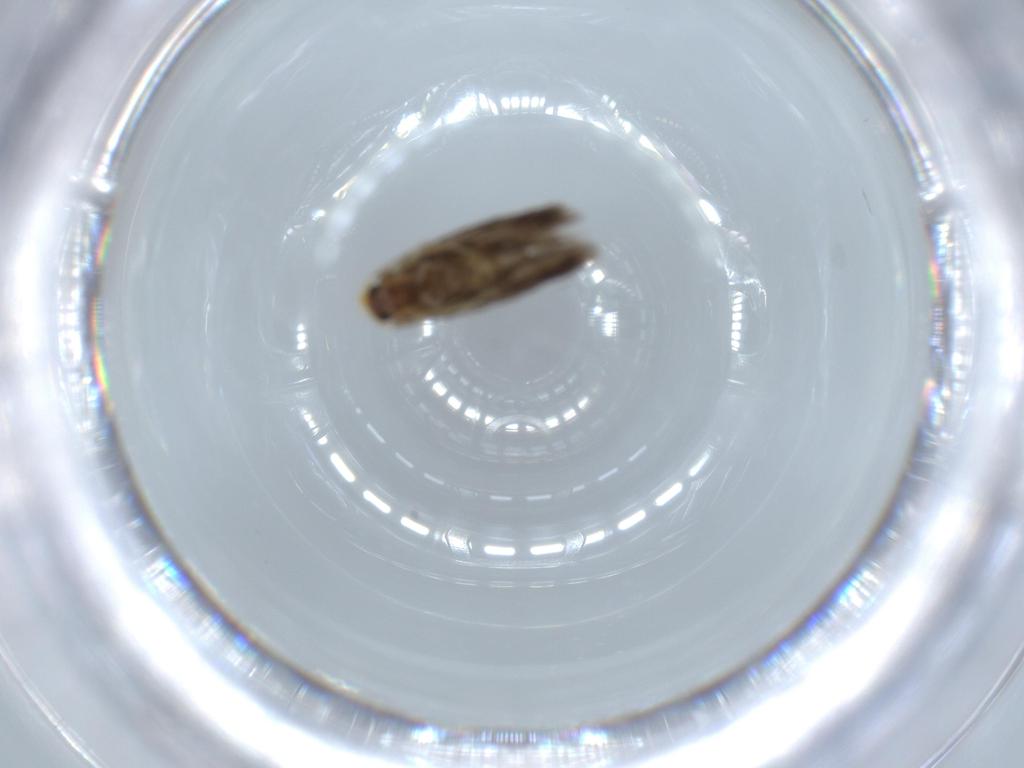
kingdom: Animalia
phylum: Arthropoda
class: Insecta
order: Lepidoptera
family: Nepticulidae
